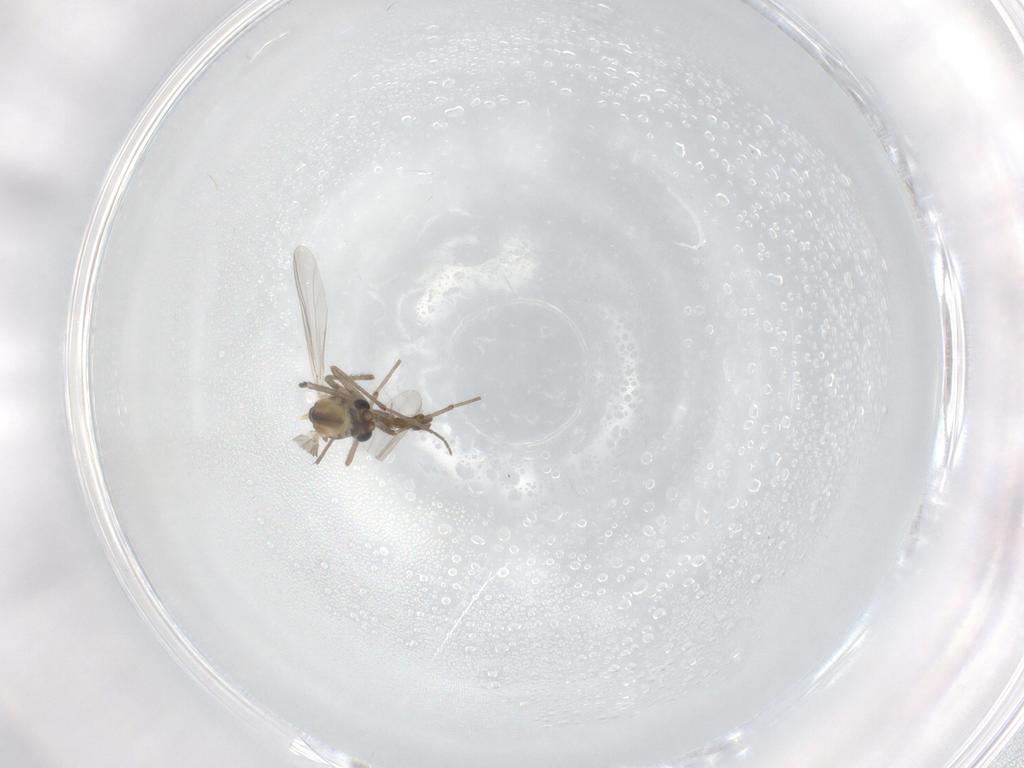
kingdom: Animalia
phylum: Arthropoda
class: Insecta
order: Diptera
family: Chironomidae
